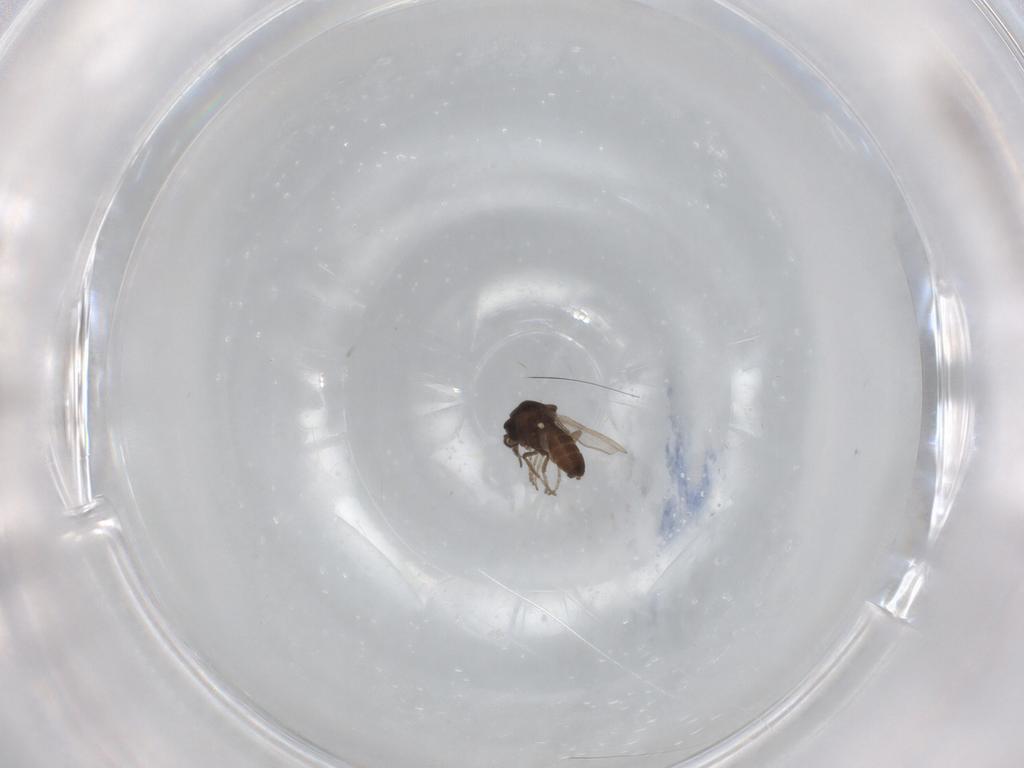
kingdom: Animalia
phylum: Arthropoda
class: Insecta
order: Diptera
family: Ceratopogonidae
